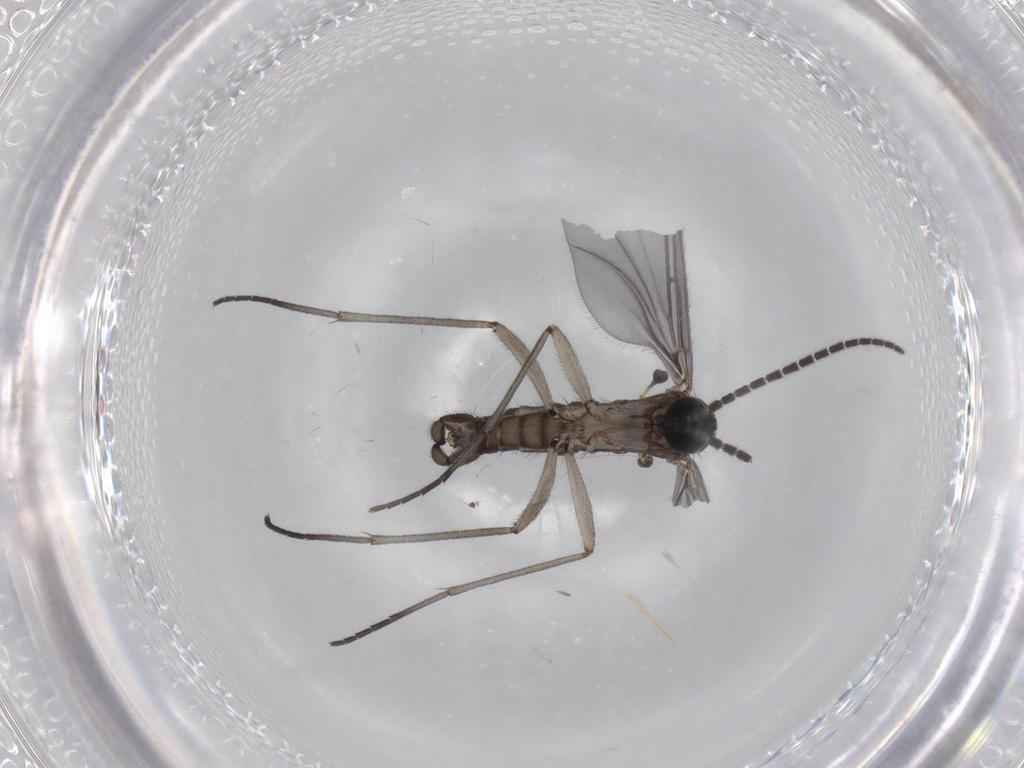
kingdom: Animalia
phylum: Arthropoda
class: Insecta
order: Diptera
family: Sciaridae
